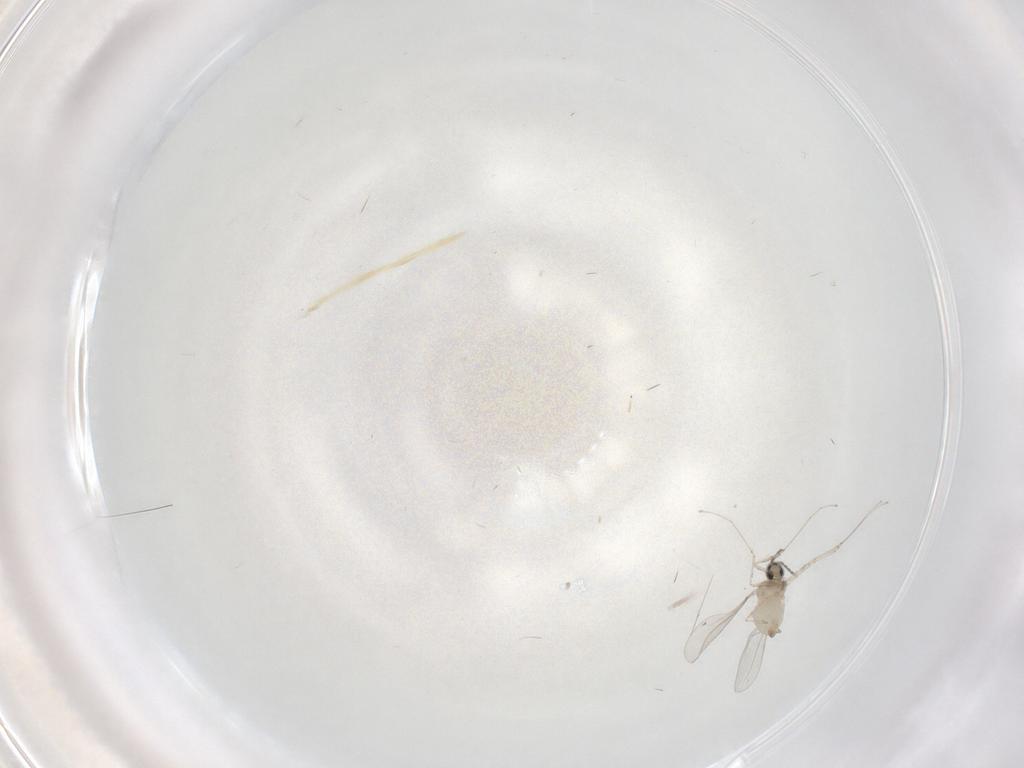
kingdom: Animalia
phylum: Arthropoda
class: Insecta
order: Diptera
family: Cecidomyiidae
